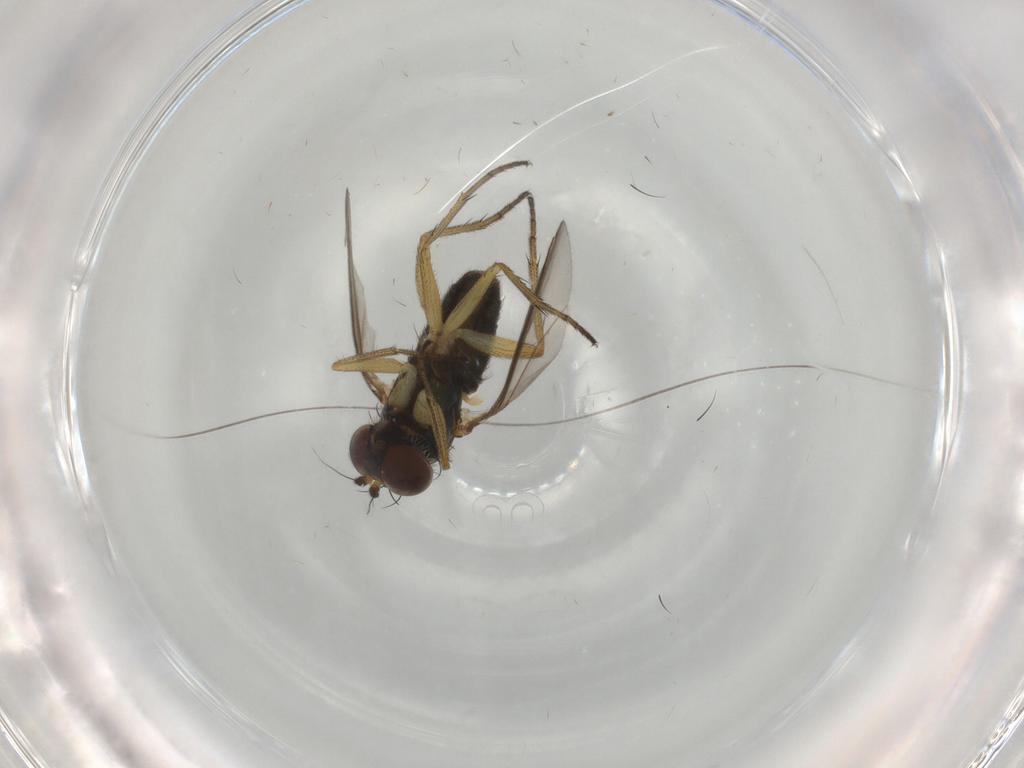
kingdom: Animalia
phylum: Arthropoda
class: Insecta
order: Diptera
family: Dolichopodidae
